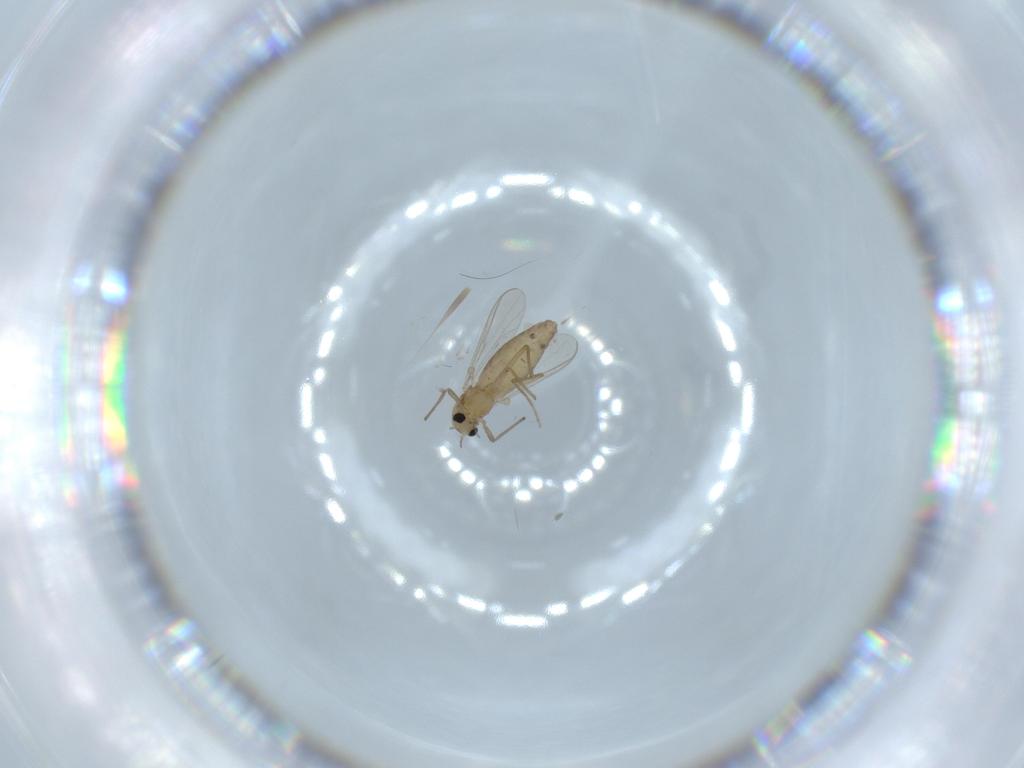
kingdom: Animalia
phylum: Arthropoda
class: Insecta
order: Diptera
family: Chironomidae
